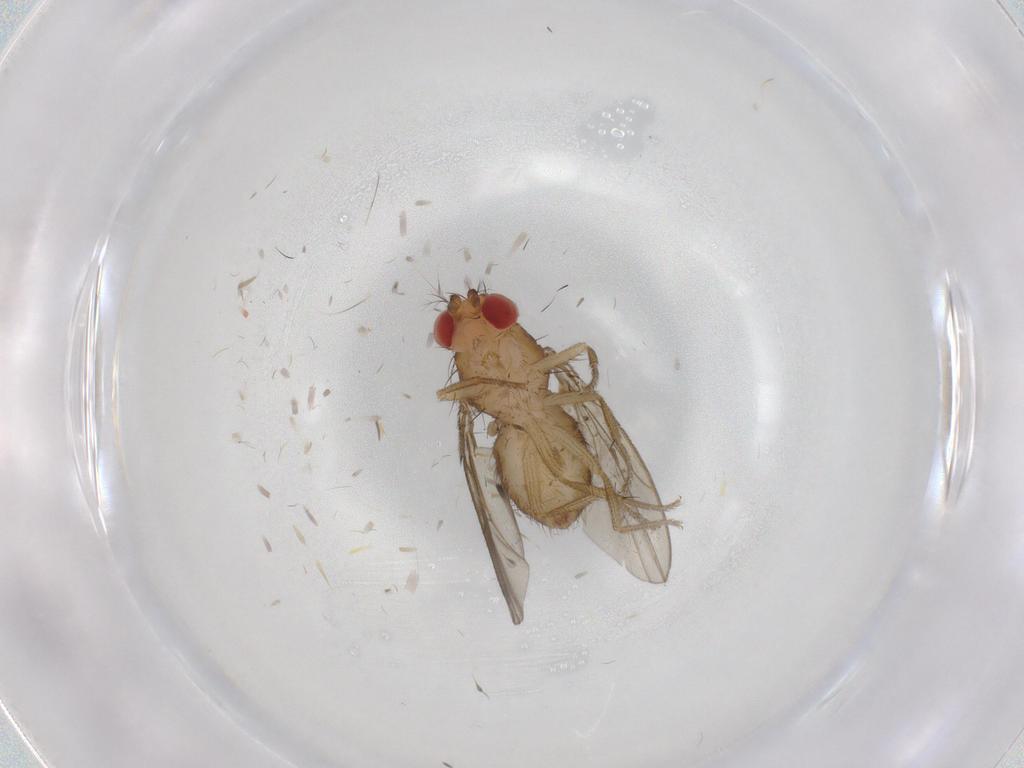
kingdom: Animalia
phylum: Arthropoda
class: Insecta
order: Diptera
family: Drosophilidae
